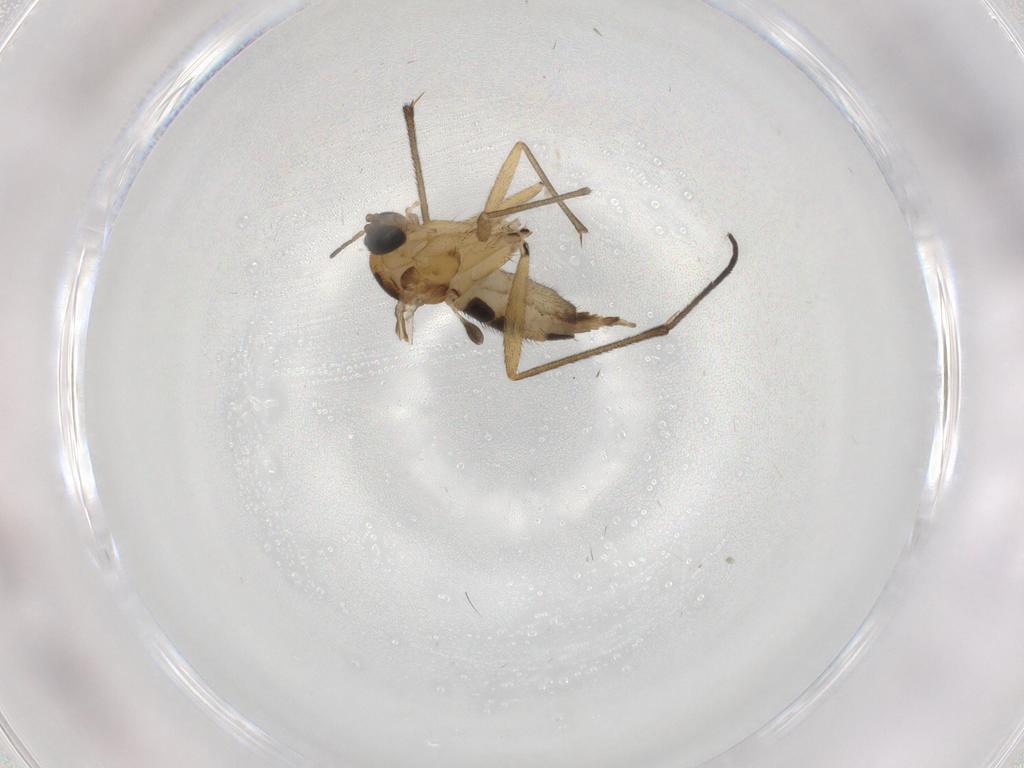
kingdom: Animalia
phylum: Arthropoda
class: Insecta
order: Diptera
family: Sciaridae
